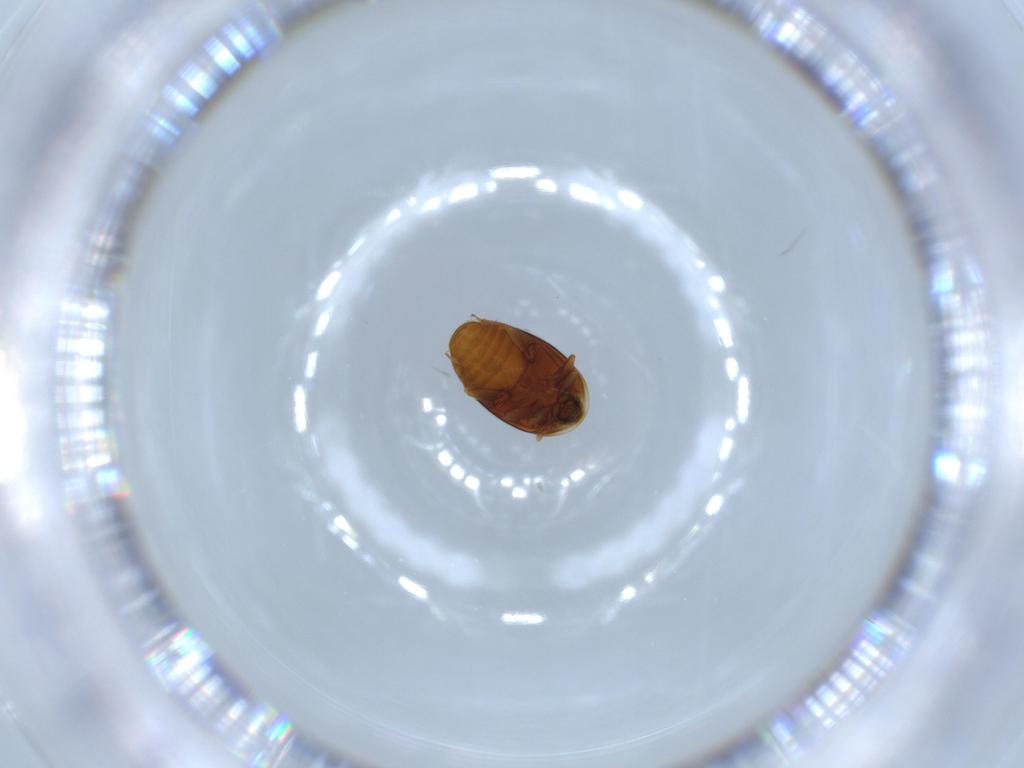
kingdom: Animalia
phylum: Arthropoda
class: Insecta
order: Coleoptera
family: Corylophidae
